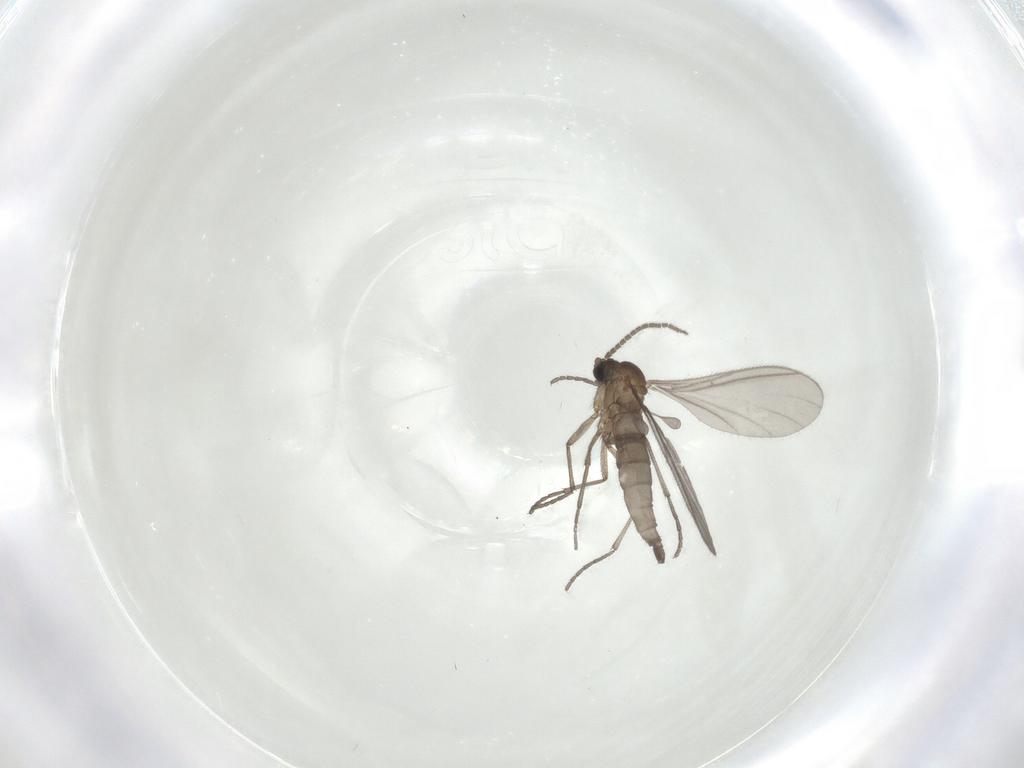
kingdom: Animalia
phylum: Arthropoda
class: Insecta
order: Diptera
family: Sciaridae
